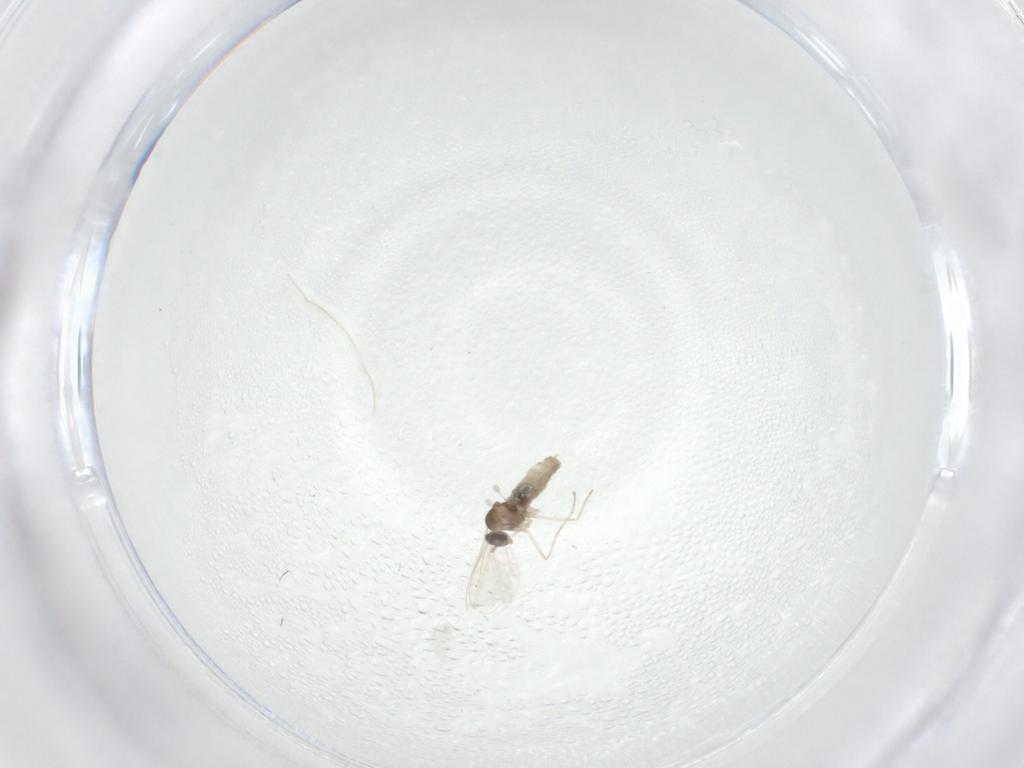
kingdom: Animalia
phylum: Arthropoda
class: Insecta
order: Diptera
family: Cecidomyiidae
